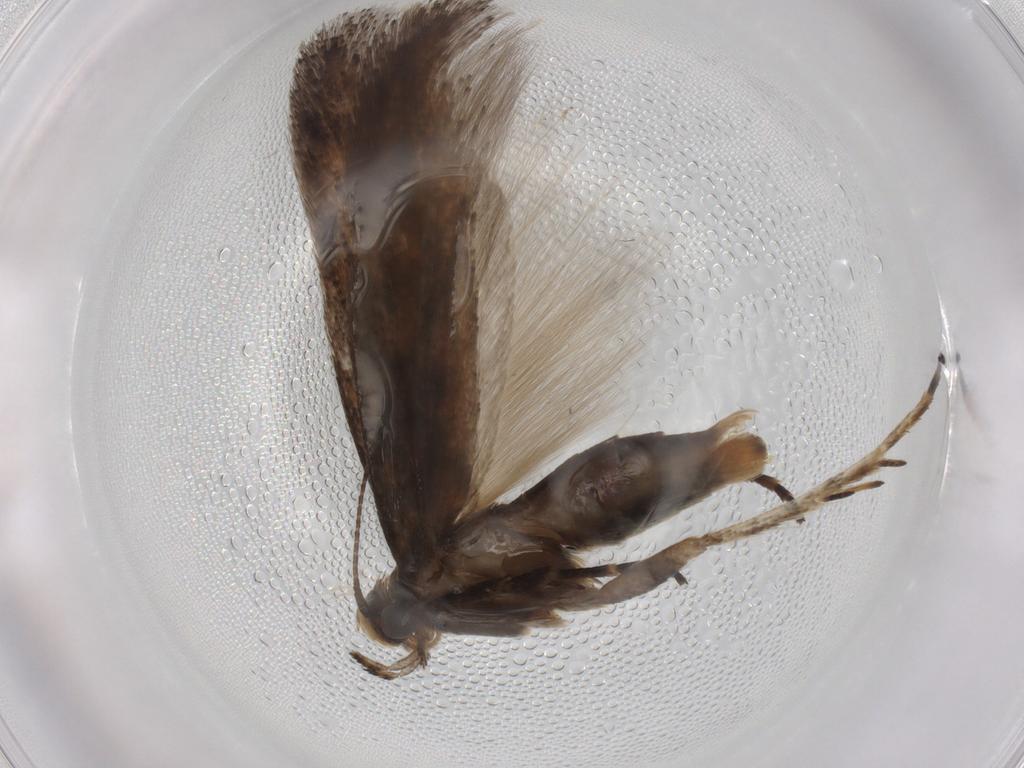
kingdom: Animalia
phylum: Arthropoda
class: Insecta
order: Lepidoptera
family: Gelechiidae
